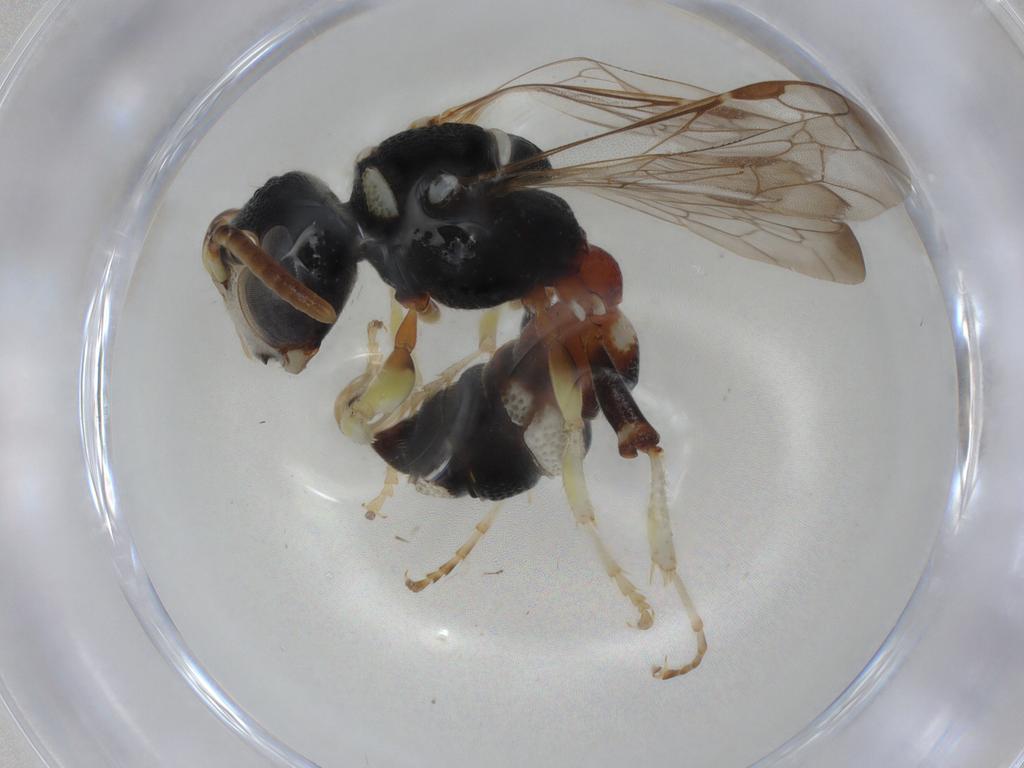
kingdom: Animalia
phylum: Arthropoda
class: Insecta
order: Hymenoptera
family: Crabronidae
